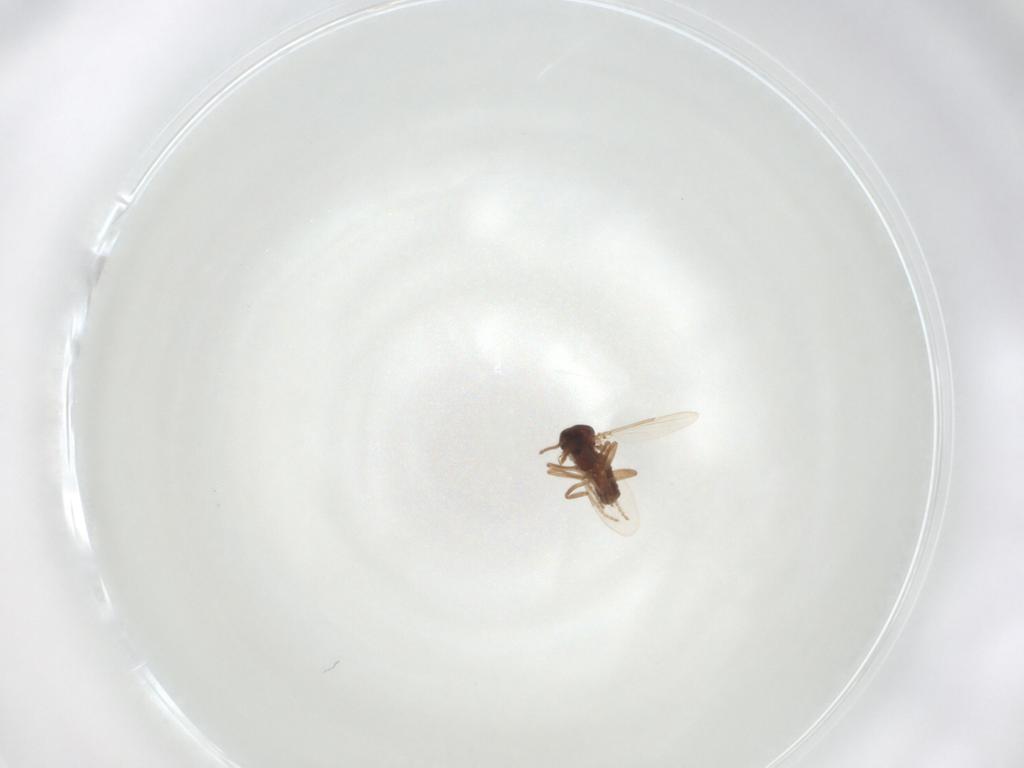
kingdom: Animalia
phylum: Arthropoda
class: Insecta
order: Diptera
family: Ceratopogonidae
